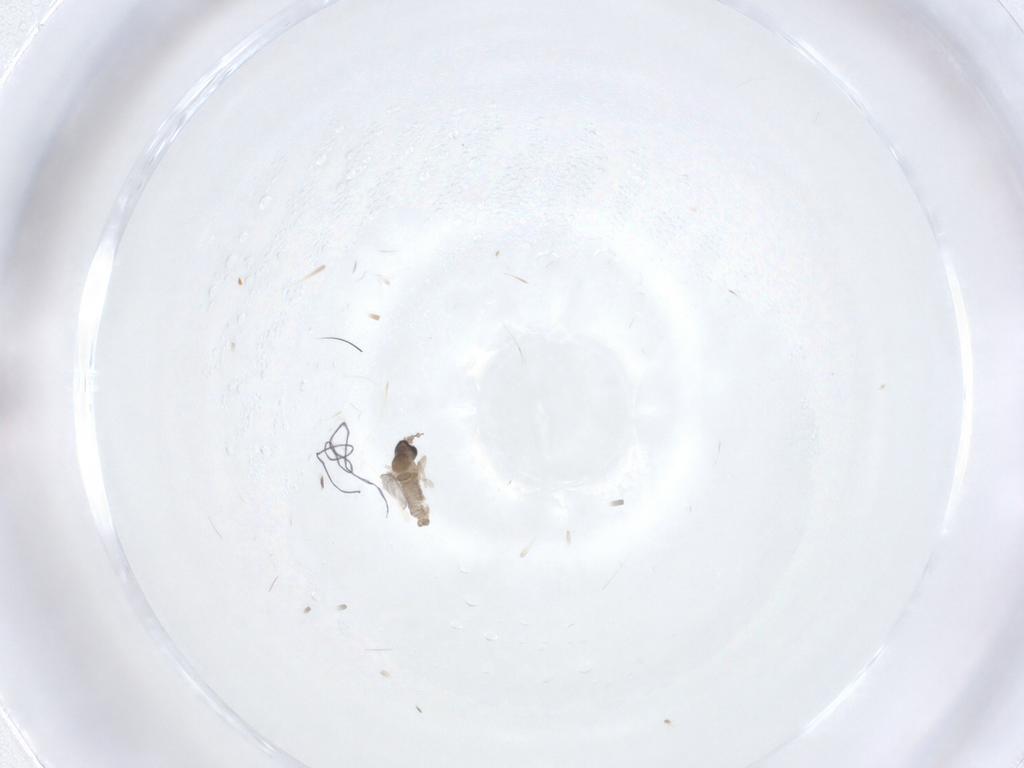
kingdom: Animalia
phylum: Arthropoda
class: Insecta
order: Diptera
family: Cecidomyiidae
